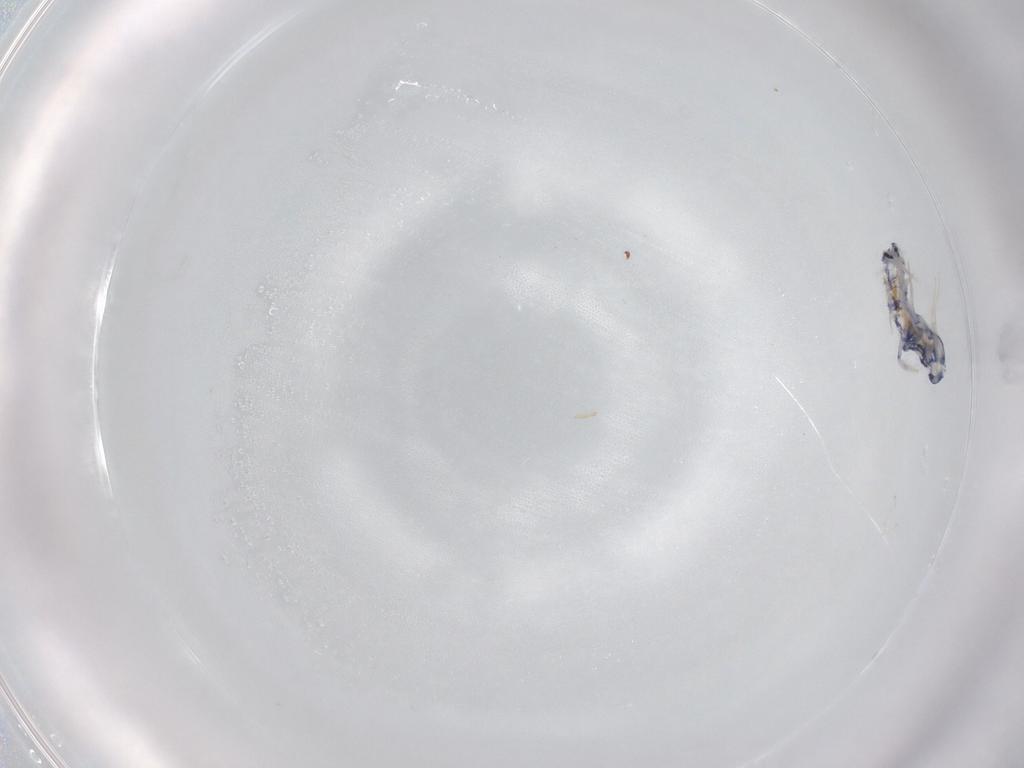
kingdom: Animalia
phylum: Arthropoda
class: Collembola
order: Entomobryomorpha
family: Entomobryidae
